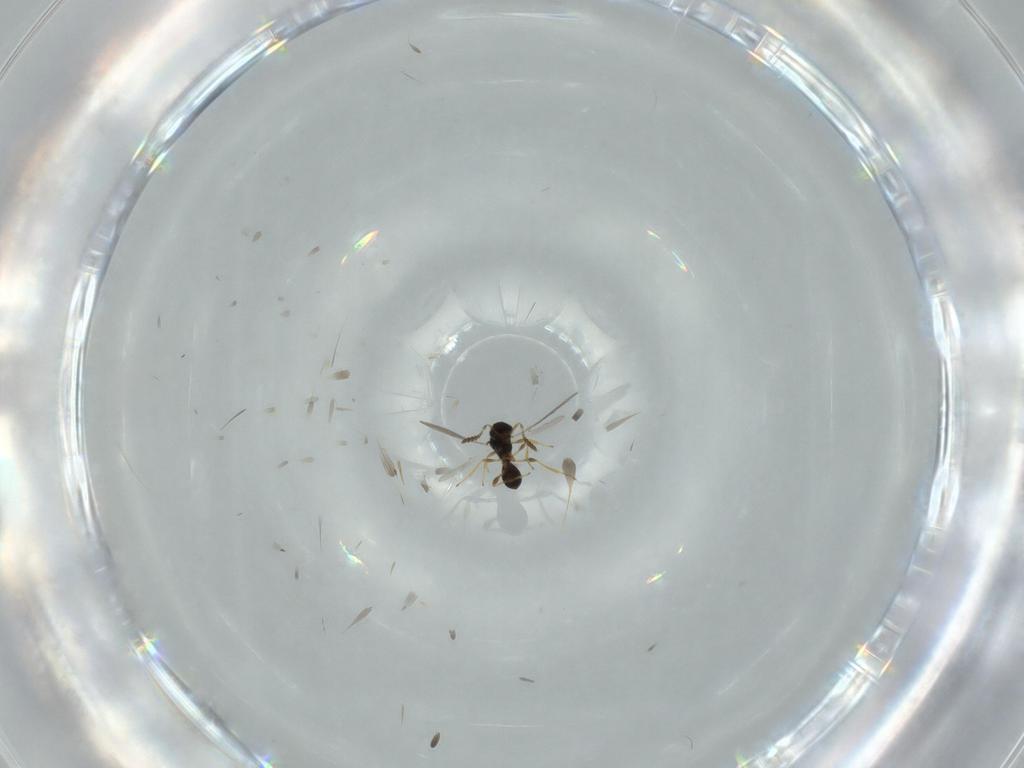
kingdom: Animalia
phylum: Arthropoda
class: Insecta
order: Hymenoptera
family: Platygastridae
